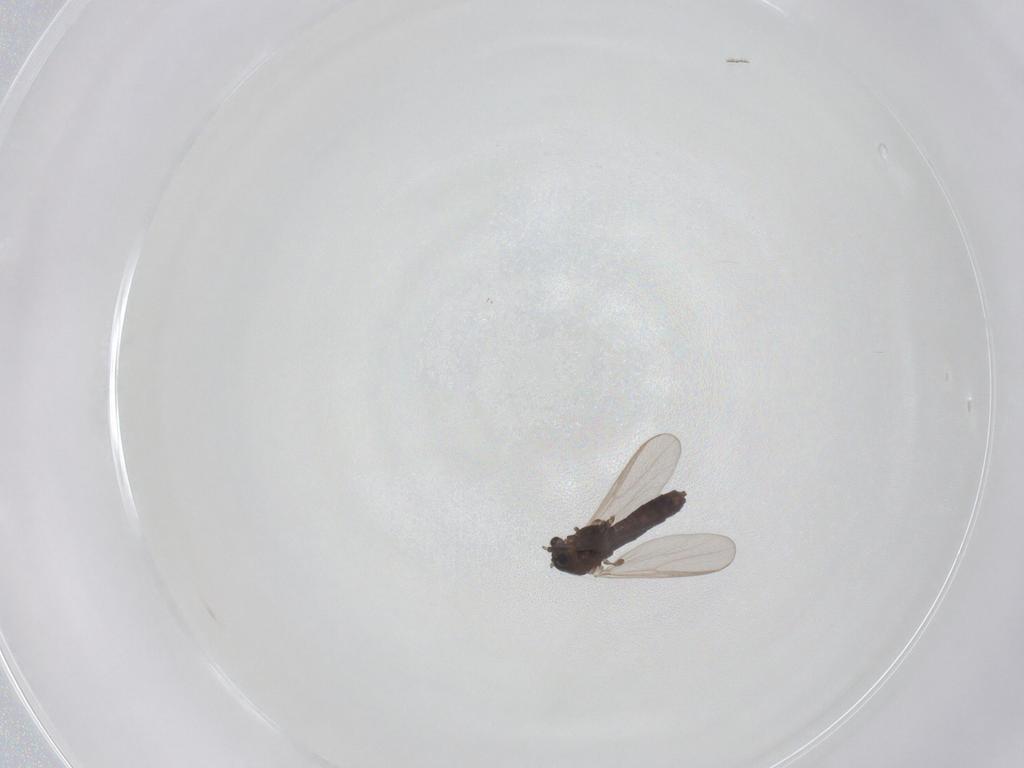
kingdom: Animalia
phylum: Arthropoda
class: Insecta
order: Diptera
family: Chironomidae
